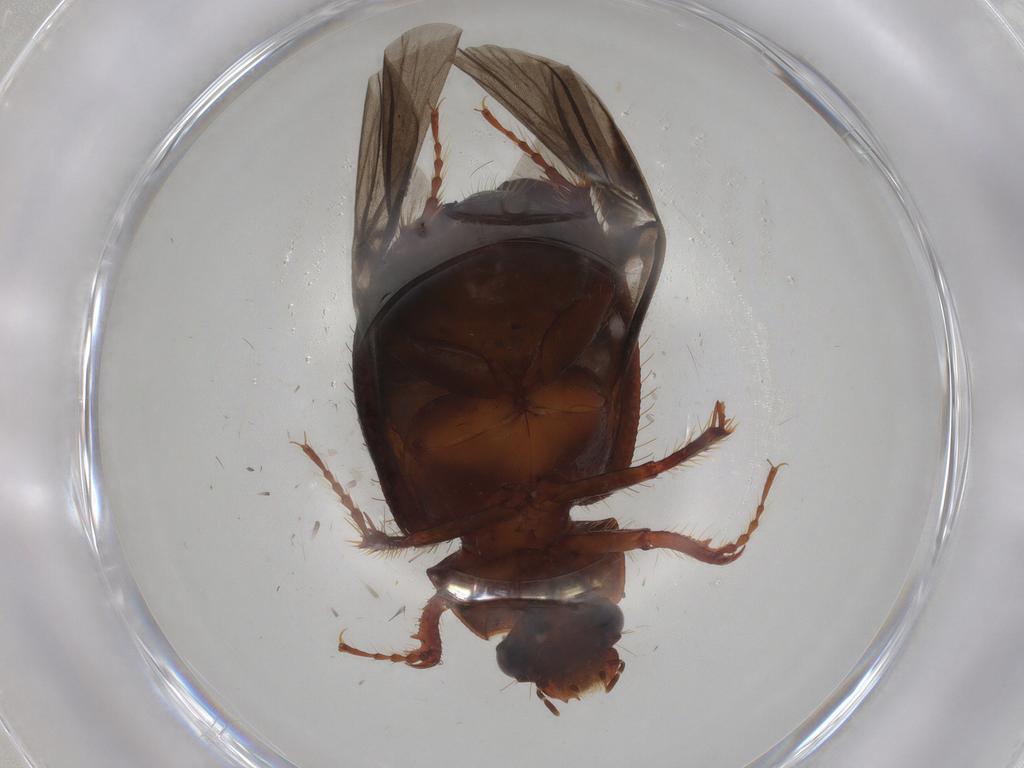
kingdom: Animalia
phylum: Arthropoda
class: Insecta
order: Coleoptera
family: Hybosoridae
